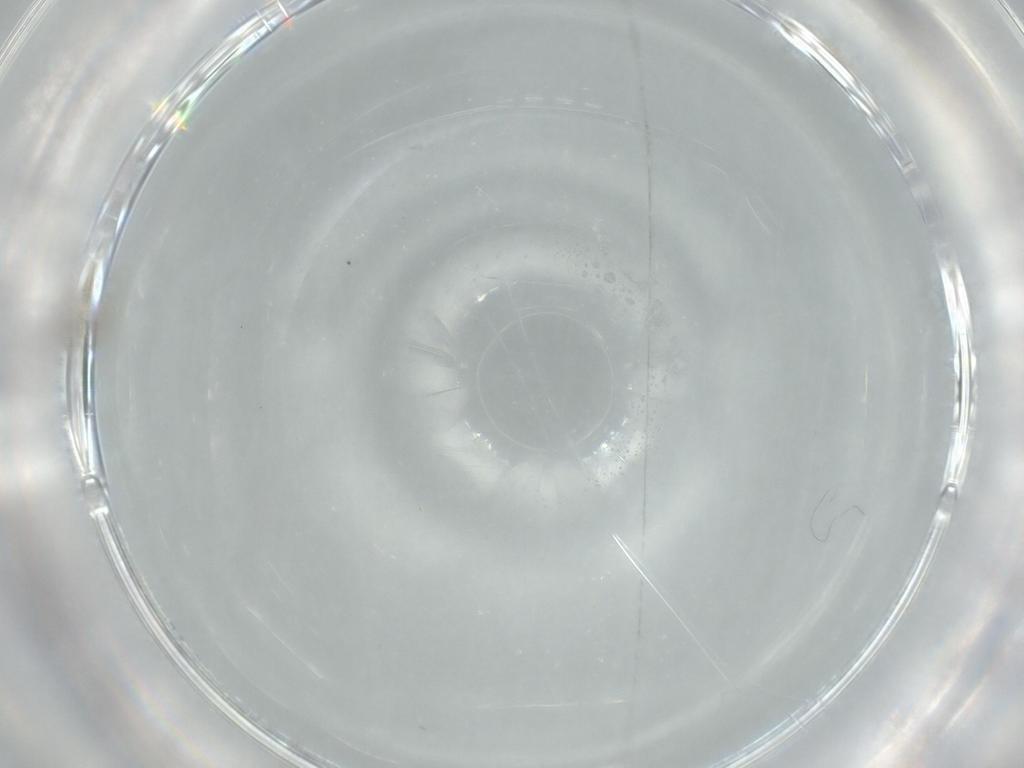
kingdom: Animalia
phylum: Arthropoda
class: Insecta
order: Diptera
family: Cecidomyiidae
